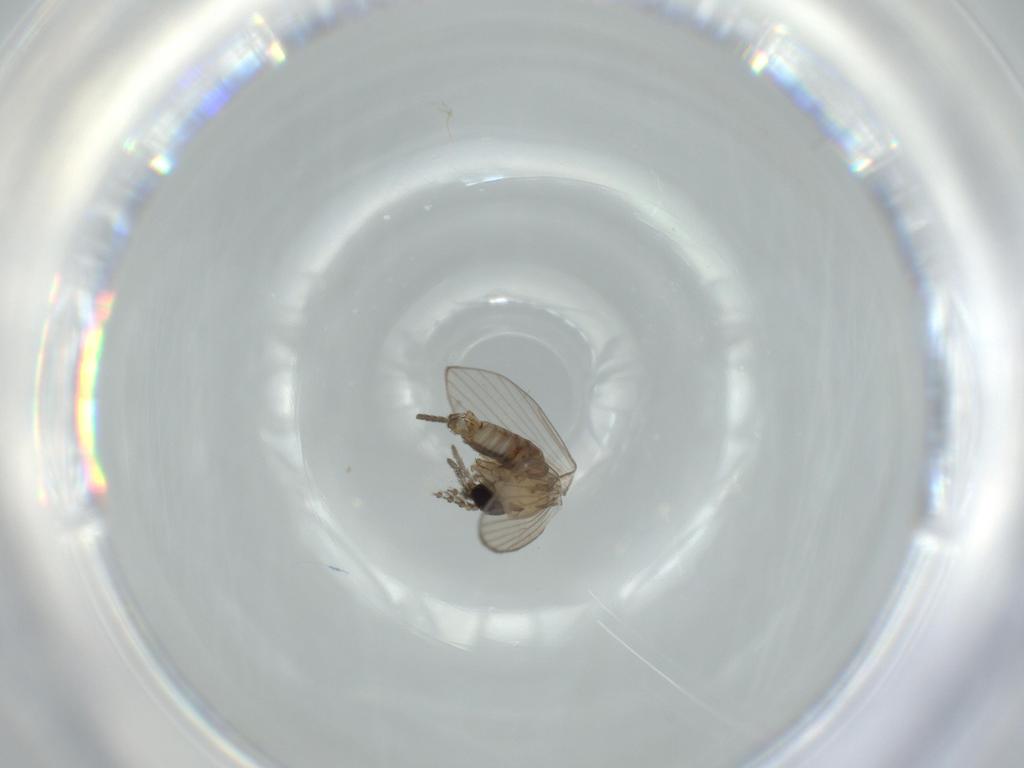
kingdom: Animalia
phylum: Arthropoda
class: Insecta
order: Diptera
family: Psychodidae
